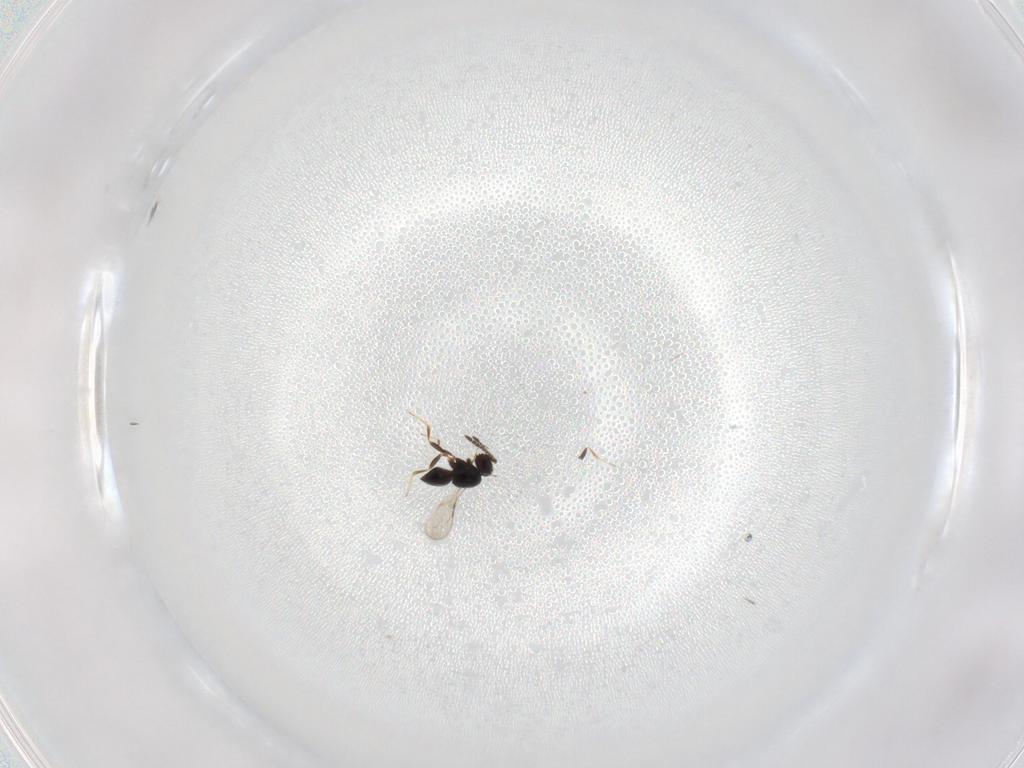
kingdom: Animalia
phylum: Arthropoda
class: Insecta
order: Hymenoptera
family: Ceraphronidae
